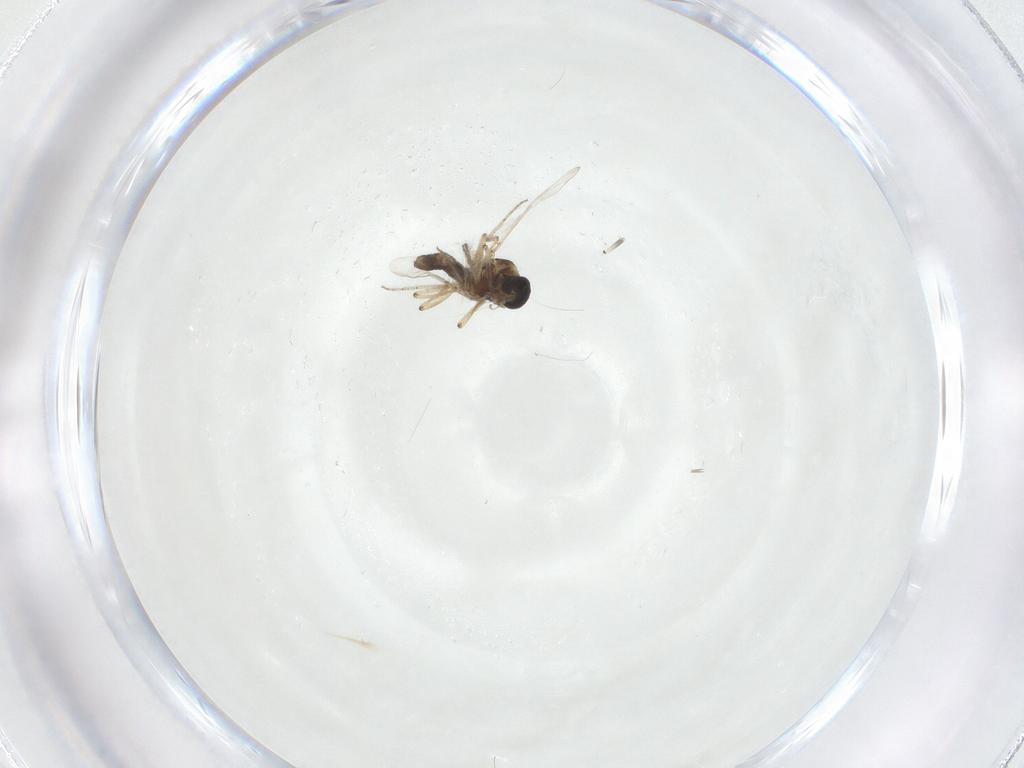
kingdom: Animalia
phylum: Arthropoda
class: Insecta
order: Diptera
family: Ceratopogonidae
